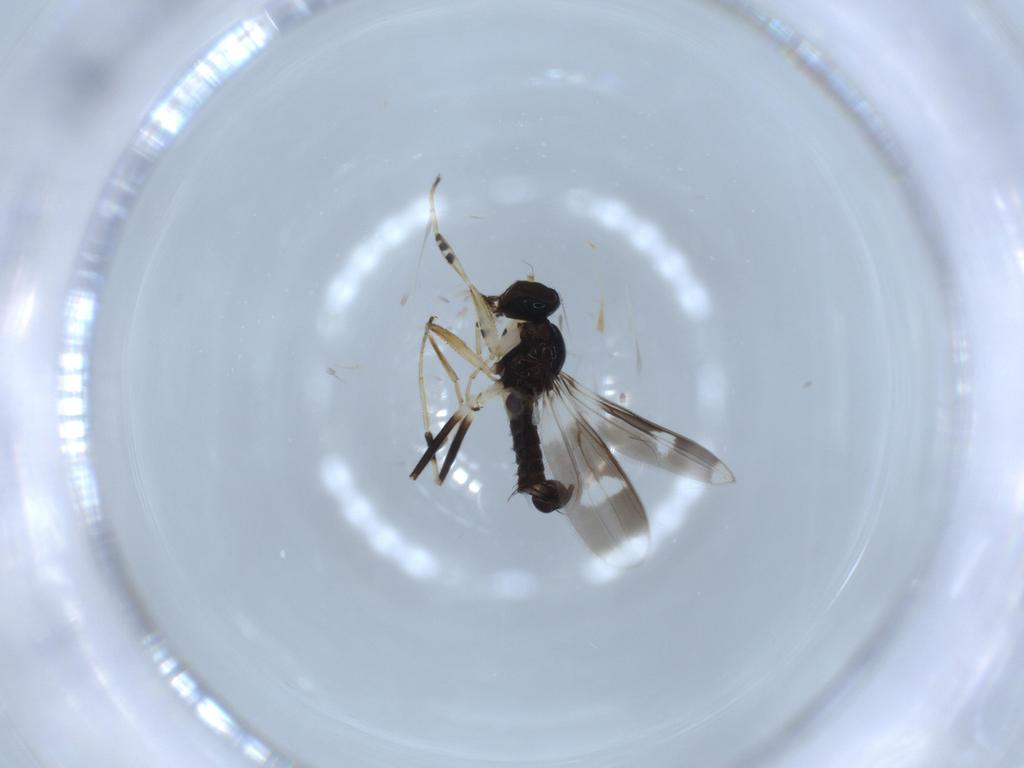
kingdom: Animalia
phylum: Arthropoda
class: Insecta
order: Diptera
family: Hybotidae
